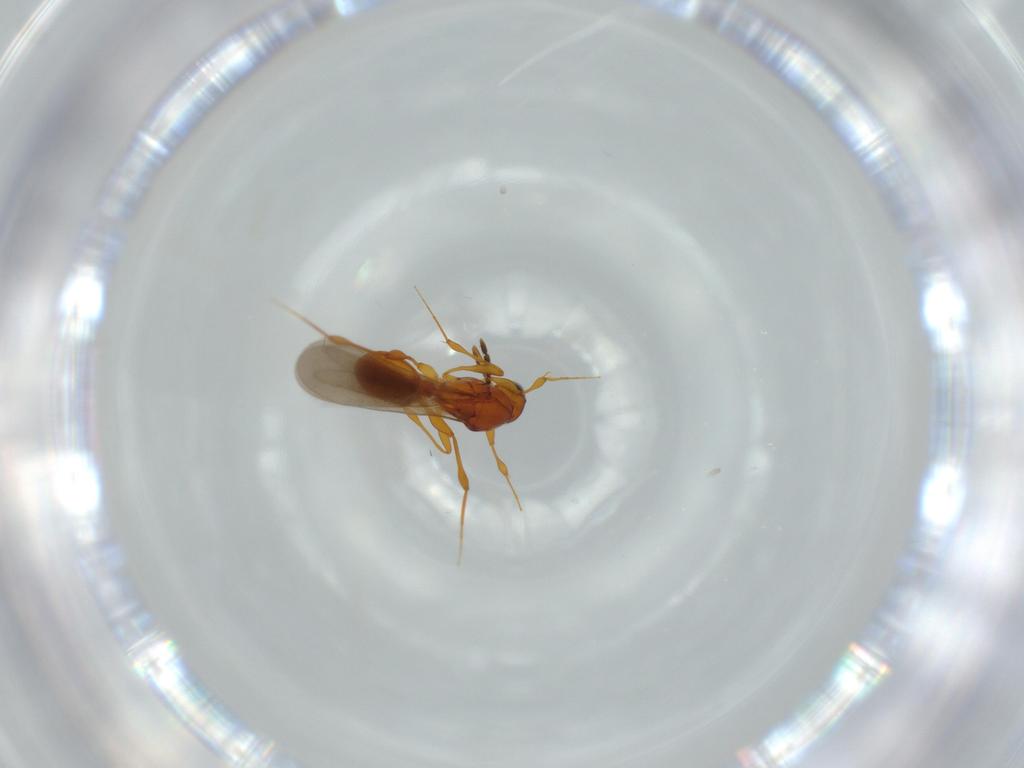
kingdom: Animalia
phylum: Arthropoda
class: Insecta
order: Hymenoptera
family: Platygastridae
